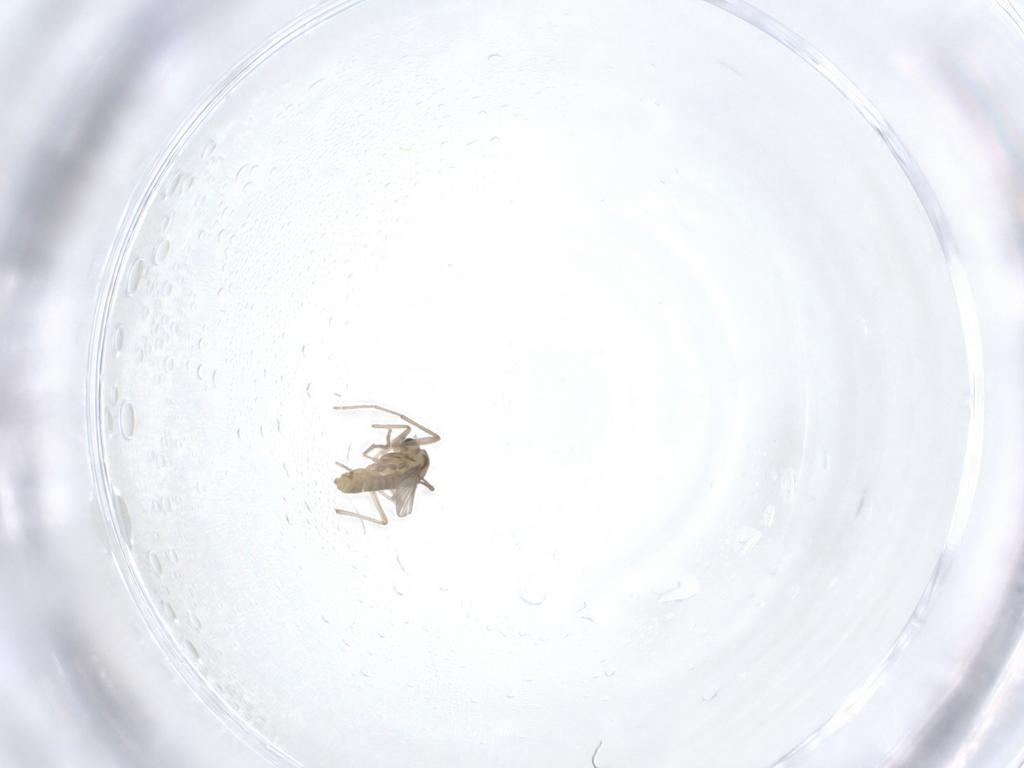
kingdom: Animalia
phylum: Arthropoda
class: Insecta
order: Diptera
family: Chironomidae
